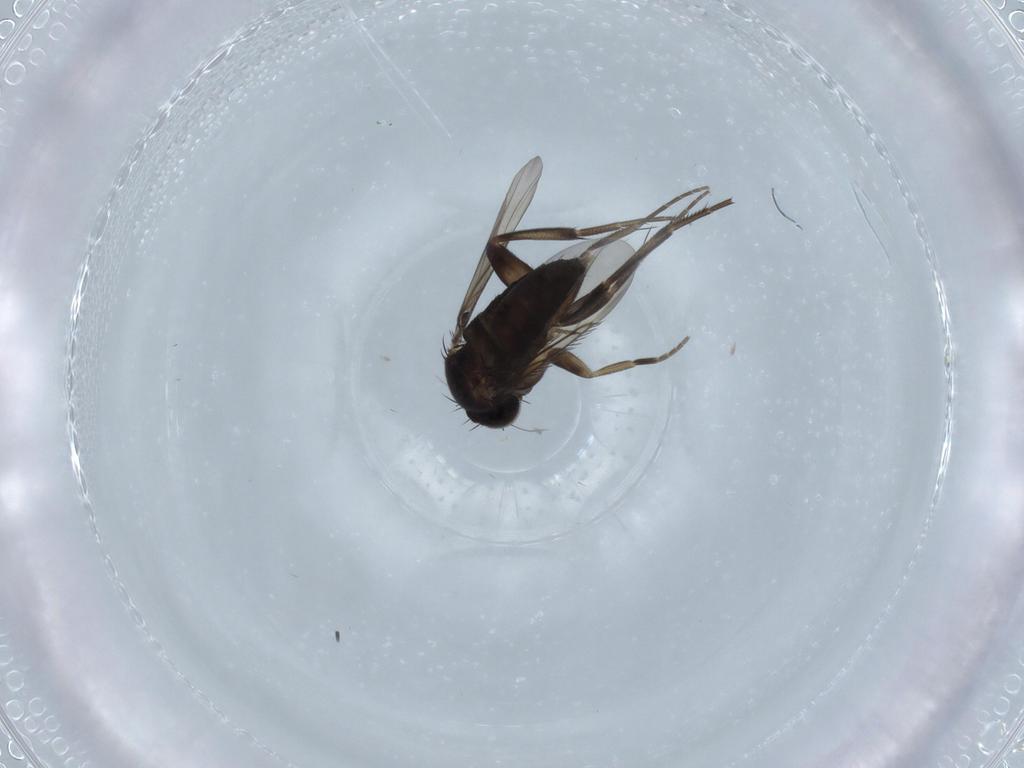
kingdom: Animalia
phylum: Arthropoda
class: Insecta
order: Diptera
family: Phoridae
